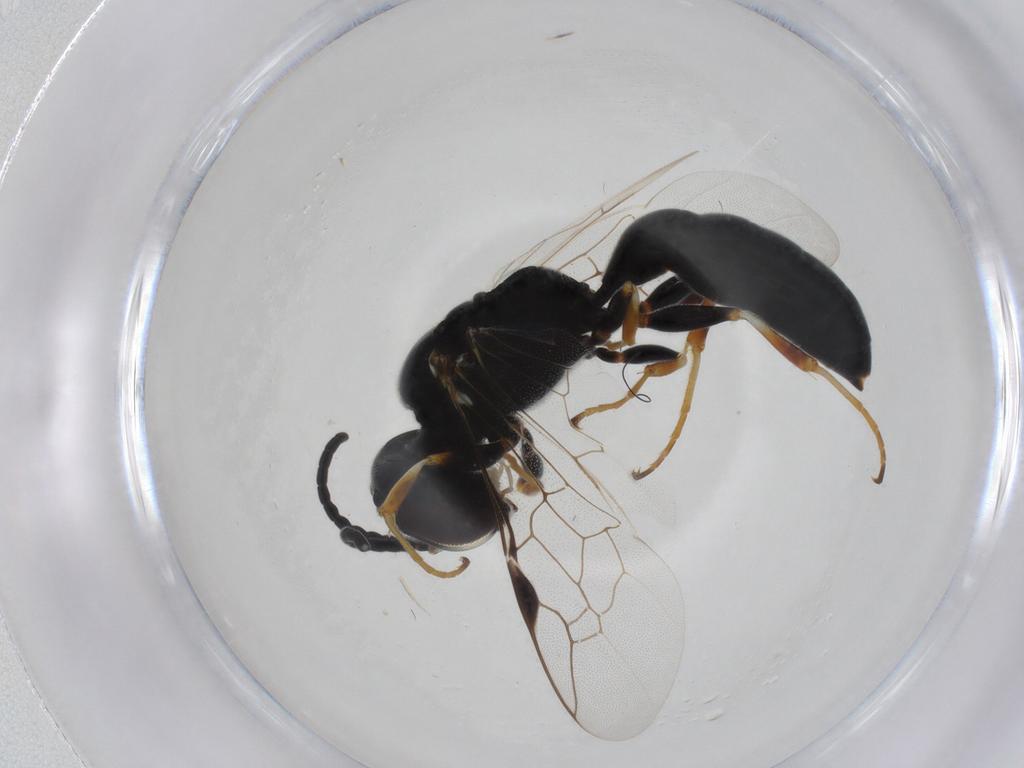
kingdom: Animalia
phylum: Arthropoda
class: Insecta
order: Hymenoptera
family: Pemphredonidae
